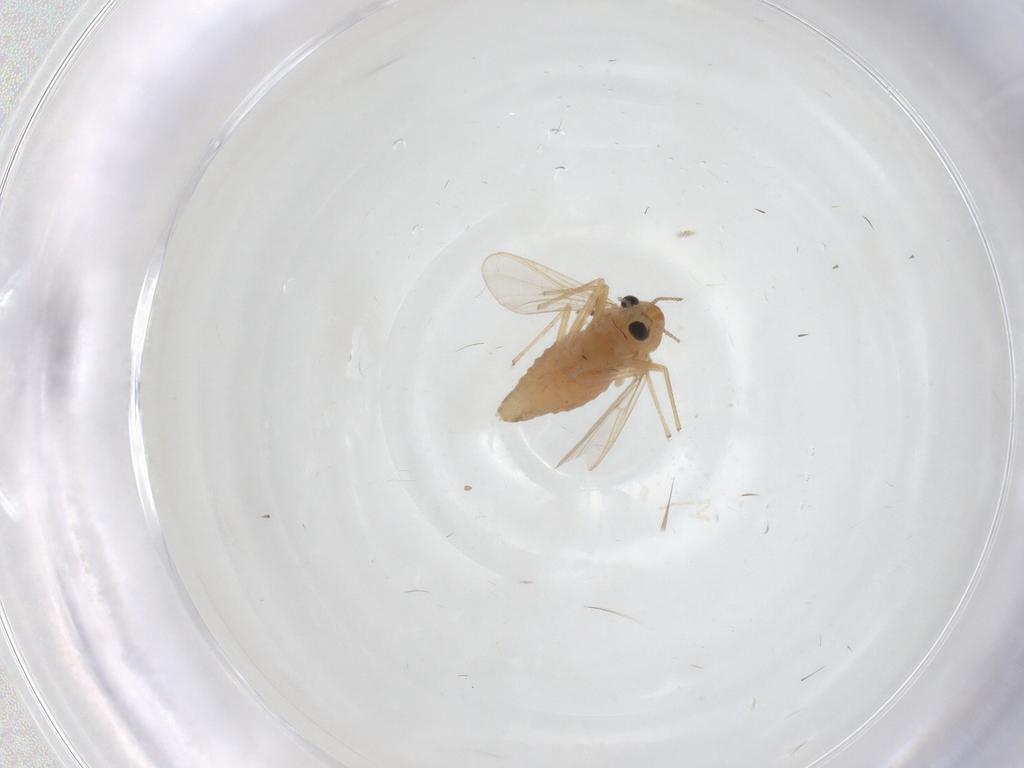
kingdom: Animalia
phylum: Arthropoda
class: Insecta
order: Diptera
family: Chironomidae
